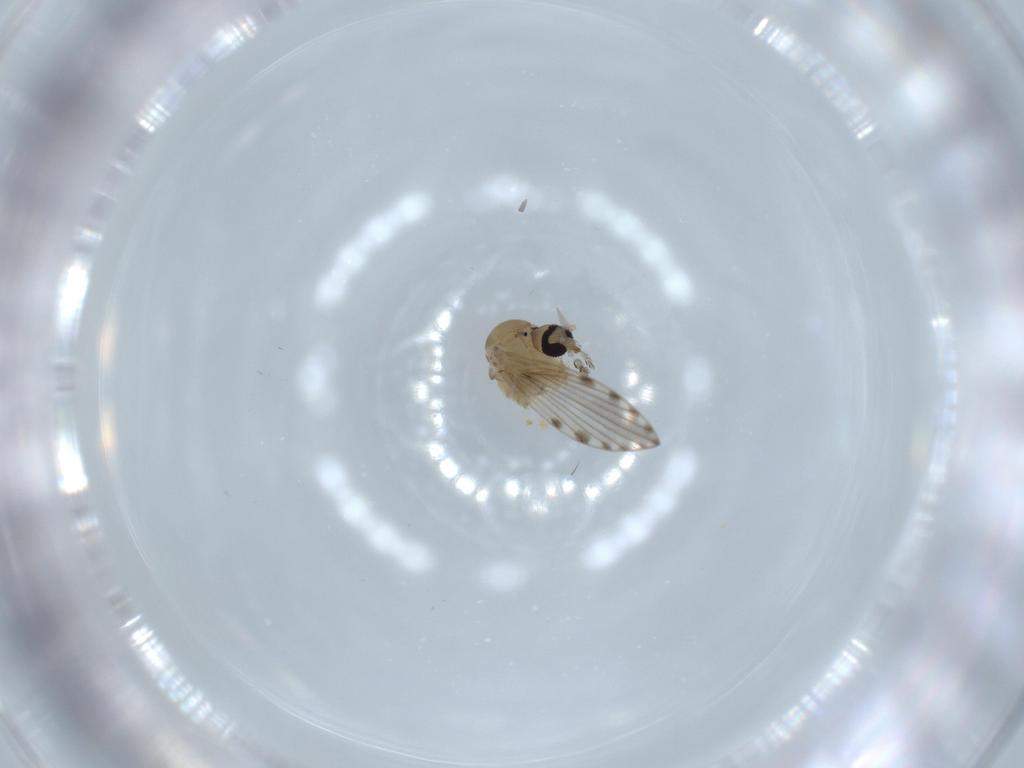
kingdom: Animalia
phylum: Arthropoda
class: Insecta
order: Diptera
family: Psychodidae
